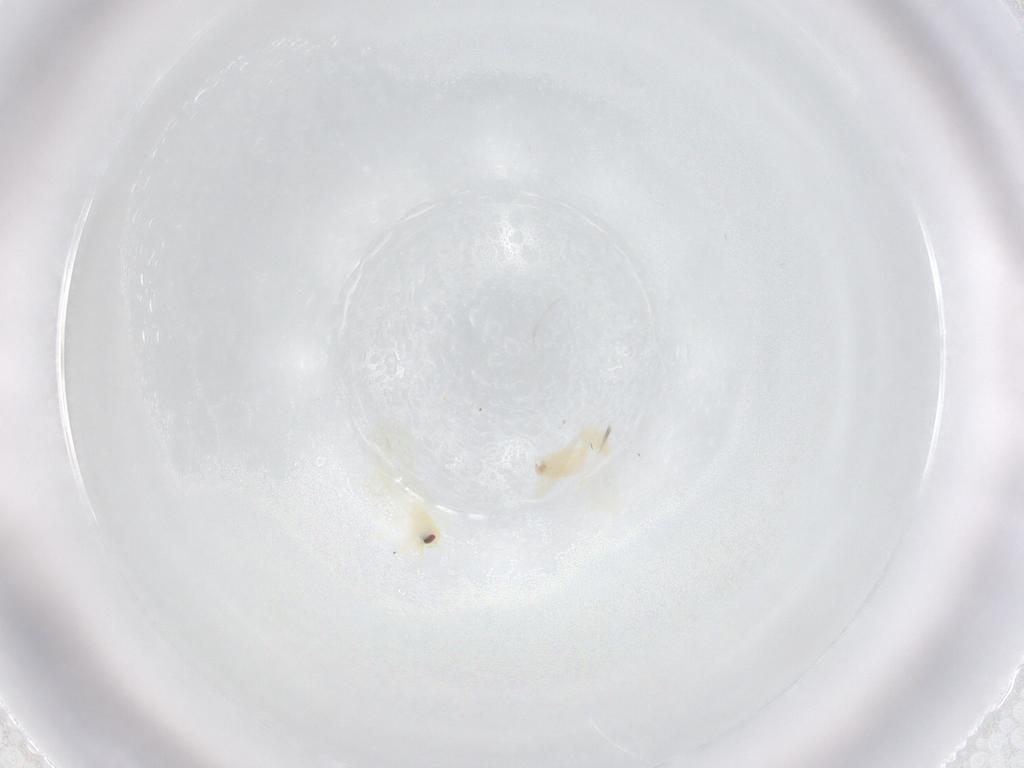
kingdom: Animalia
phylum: Arthropoda
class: Insecta
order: Hemiptera
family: Aleyrodidae
